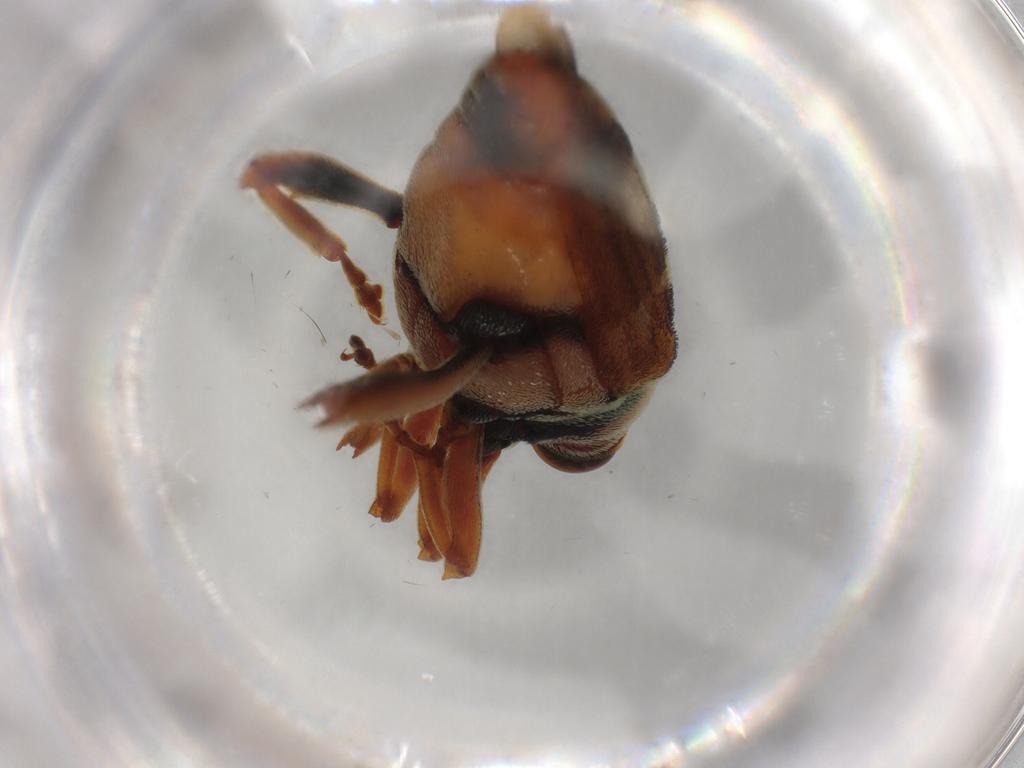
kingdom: Animalia
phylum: Arthropoda
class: Insecta
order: Coleoptera
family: Zopheridae
